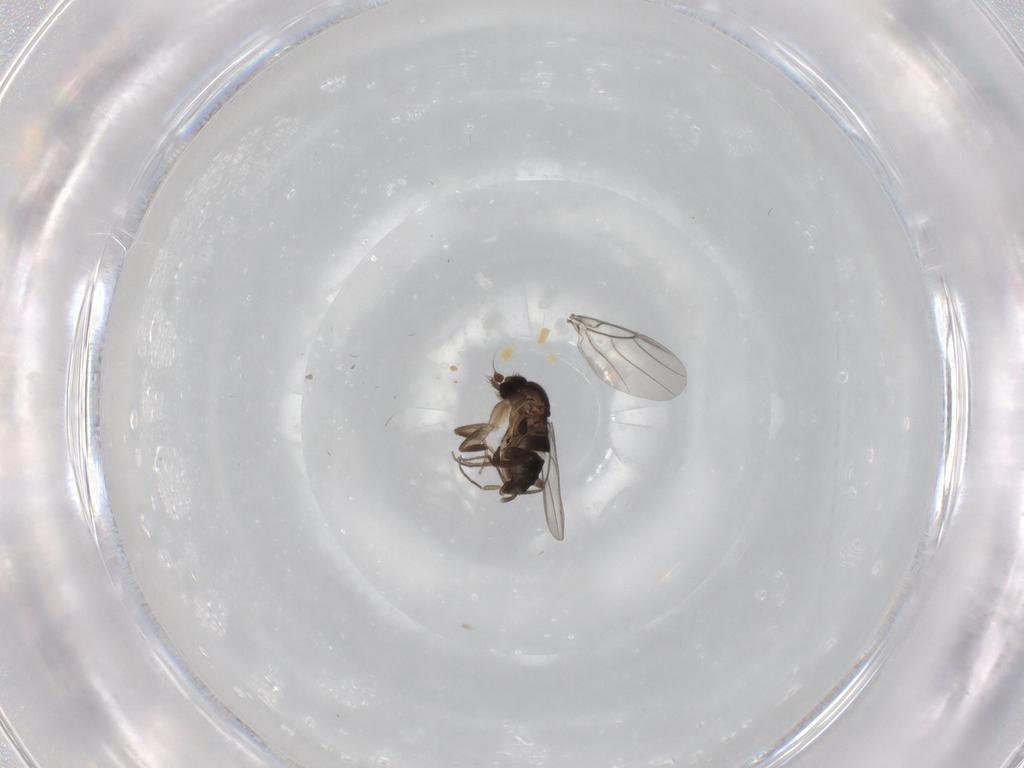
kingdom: Animalia
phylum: Arthropoda
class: Insecta
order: Diptera
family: Phoridae
